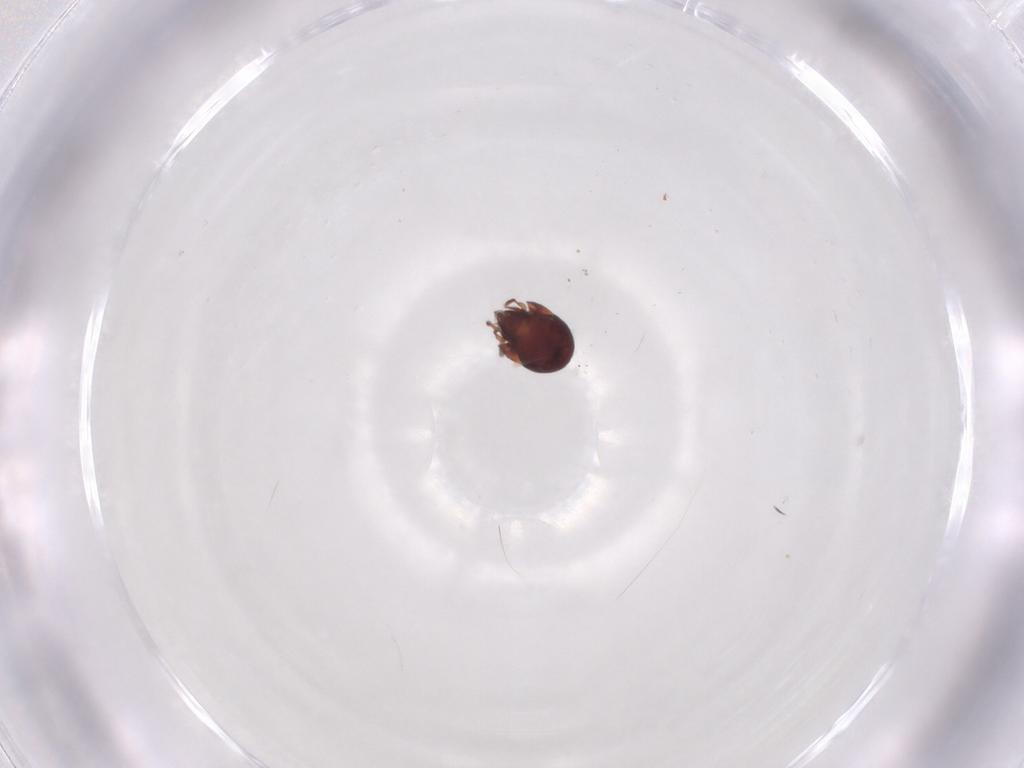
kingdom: Animalia
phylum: Arthropoda
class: Arachnida
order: Sarcoptiformes
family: Humerobatidae
